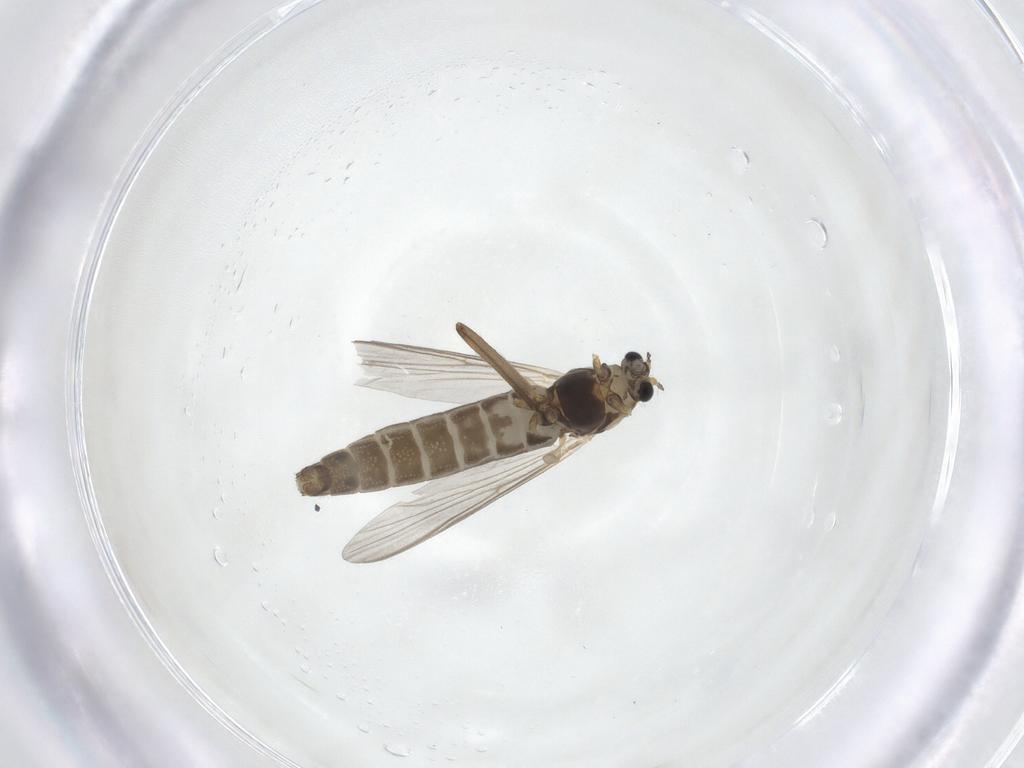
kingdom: Animalia
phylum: Arthropoda
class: Insecta
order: Diptera
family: Chironomidae
